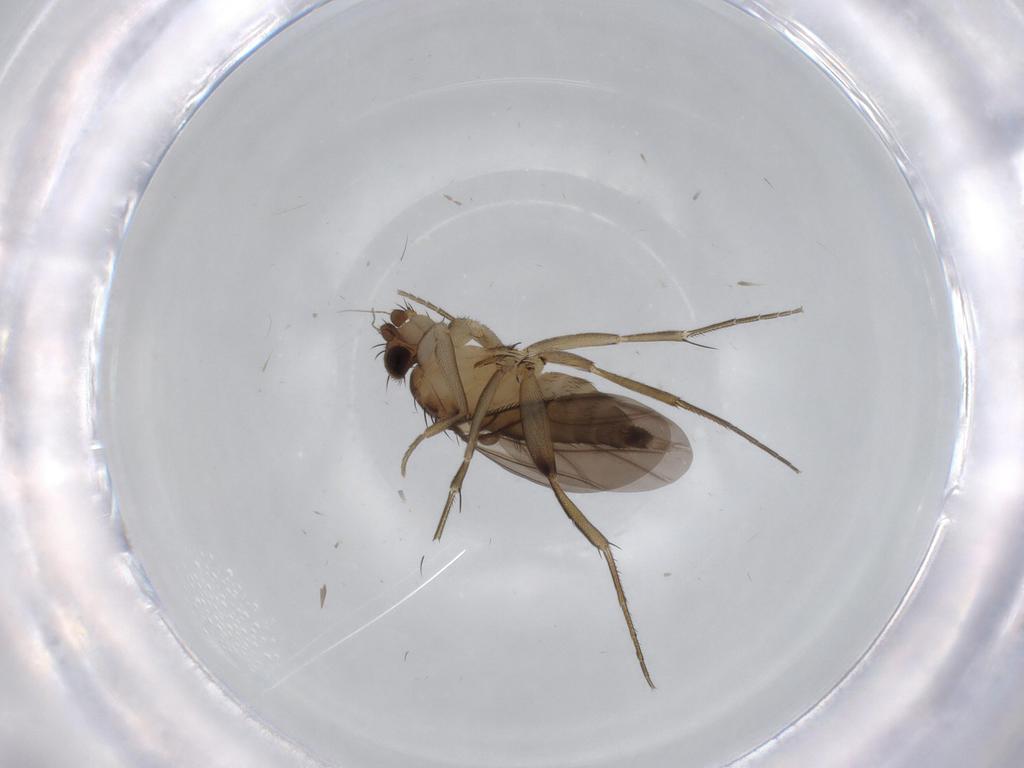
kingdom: Animalia
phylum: Arthropoda
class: Insecta
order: Diptera
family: Phoridae
